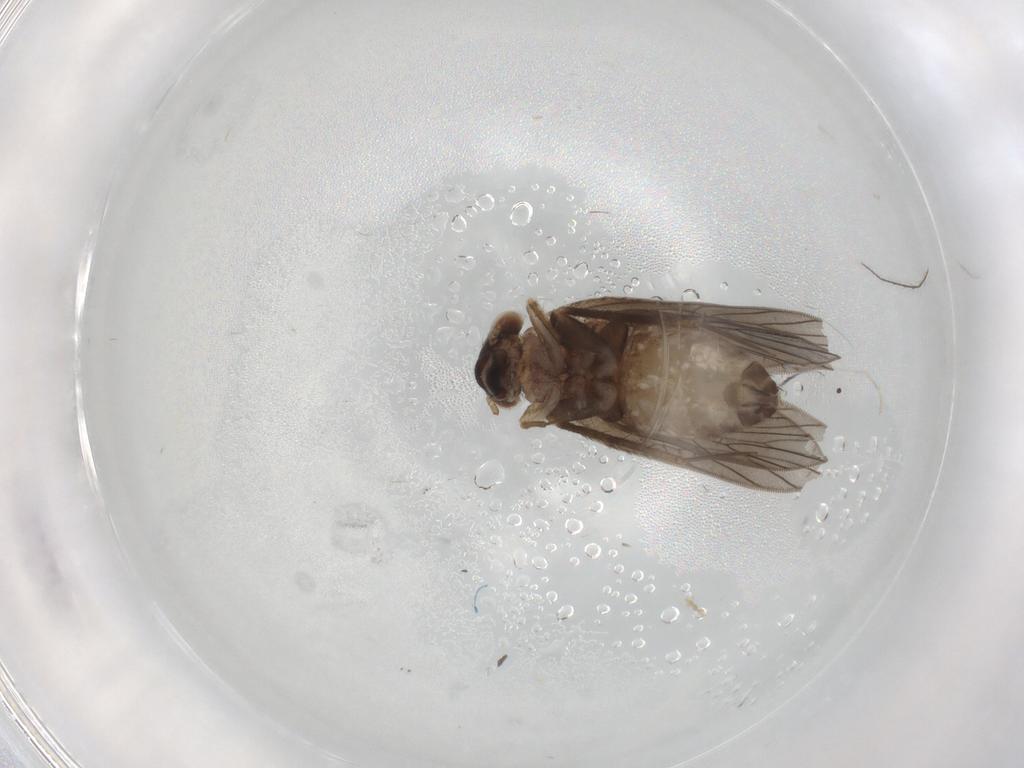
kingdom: Animalia
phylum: Arthropoda
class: Insecta
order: Psocodea
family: Lepidopsocidae
